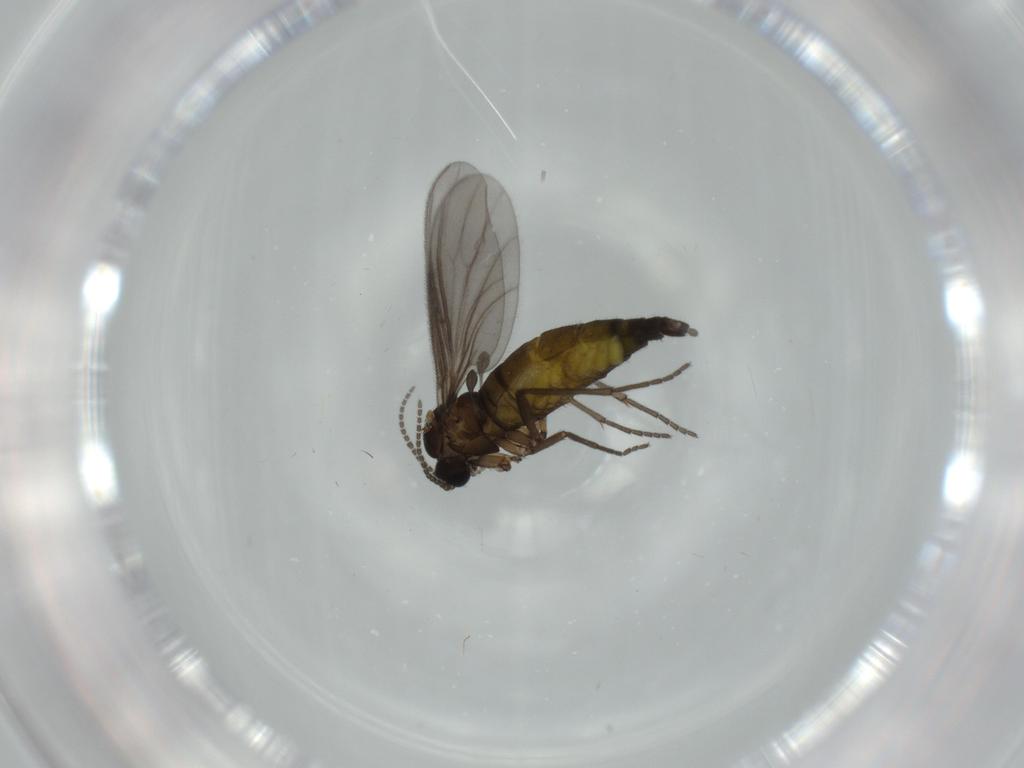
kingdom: Animalia
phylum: Arthropoda
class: Insecta
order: Diptera
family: Sciaridae
